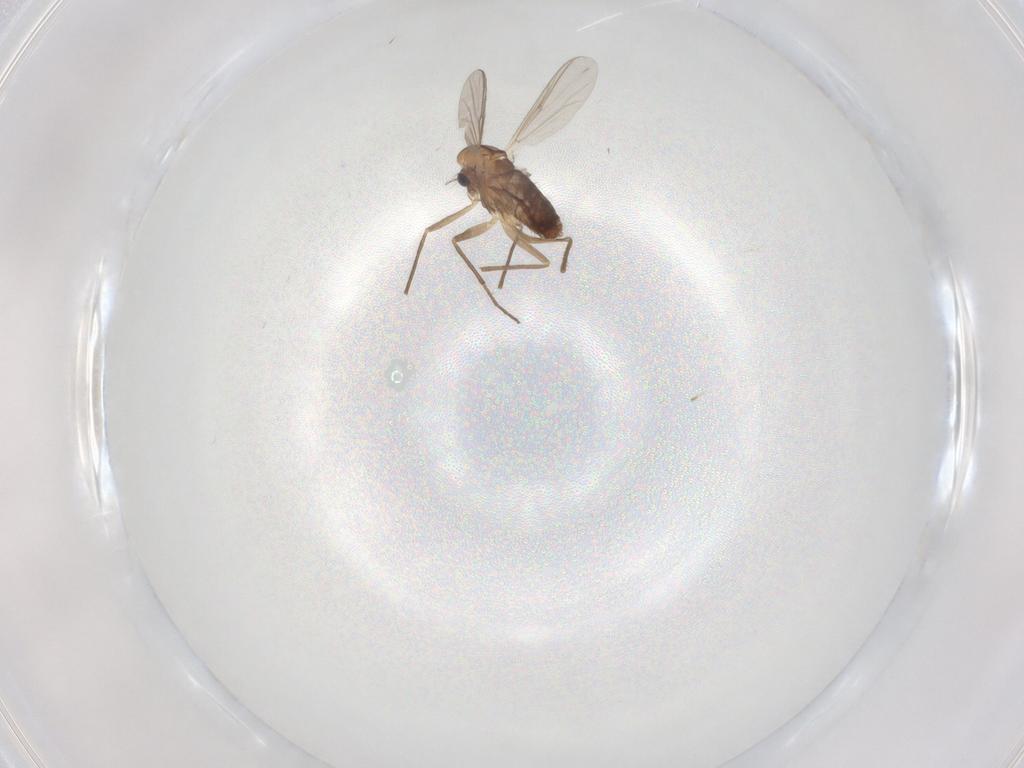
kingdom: Animalia
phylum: Arthropoda
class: Insecta
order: Diptera
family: Chironomidae
